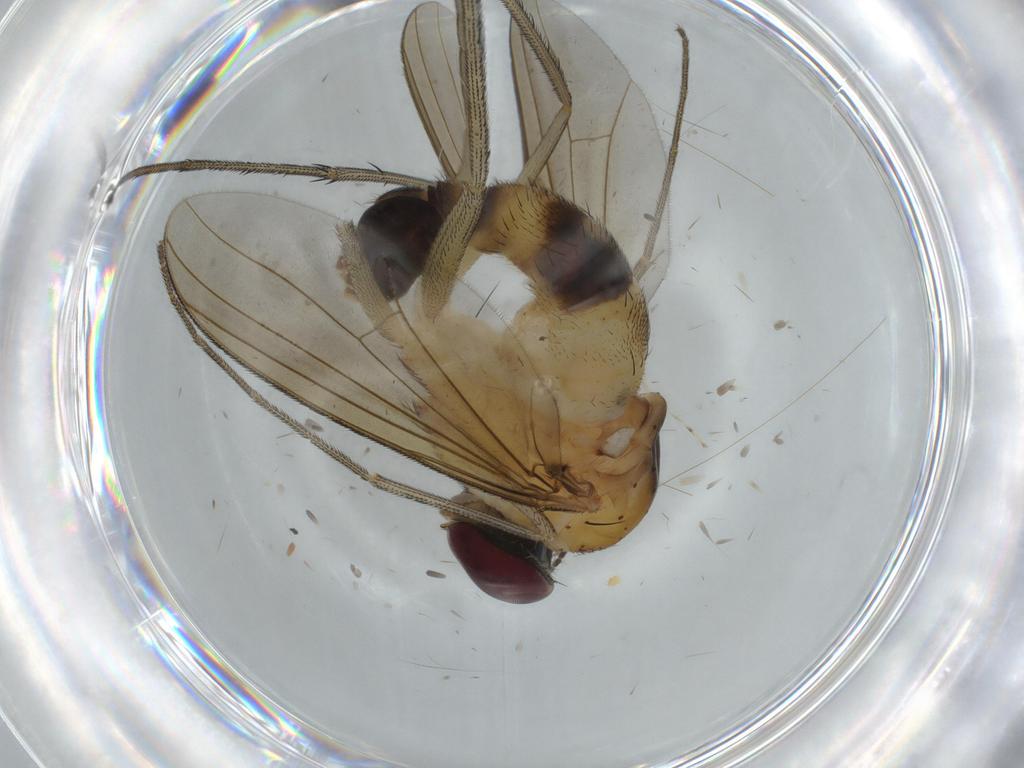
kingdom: Animalia
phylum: Arthropoda
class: Insecta
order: Diptera
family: Dolichopodidae
